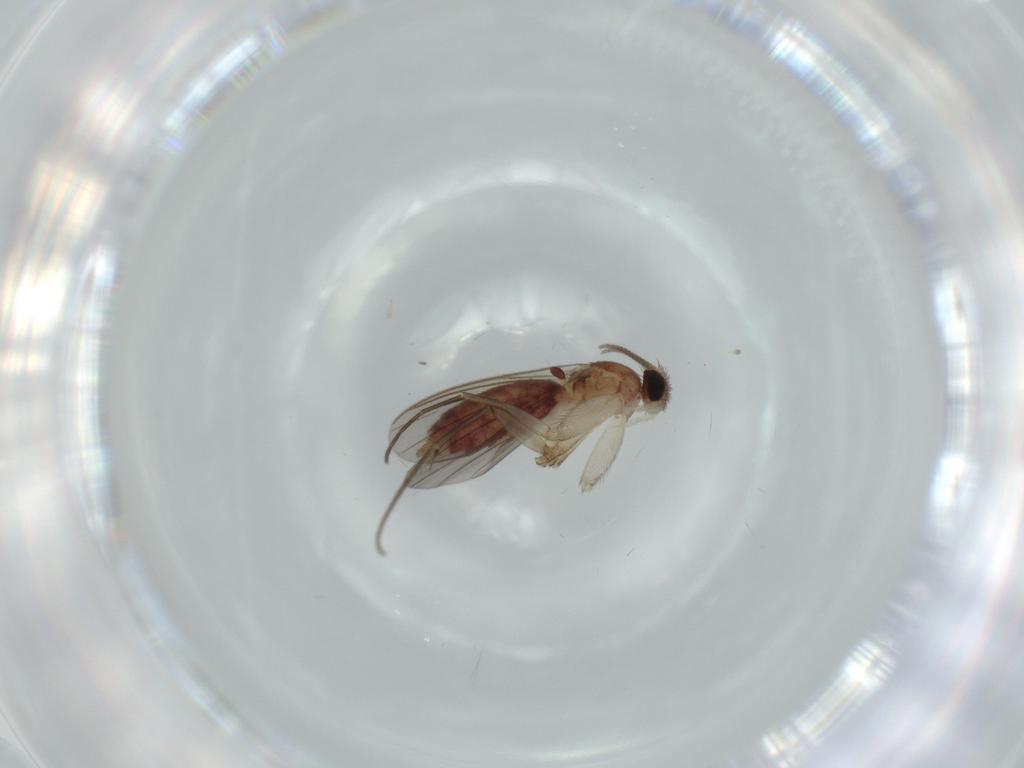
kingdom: Animalia
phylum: Arthropoda
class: Insecta
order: Diptera
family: Mycetophilidae
